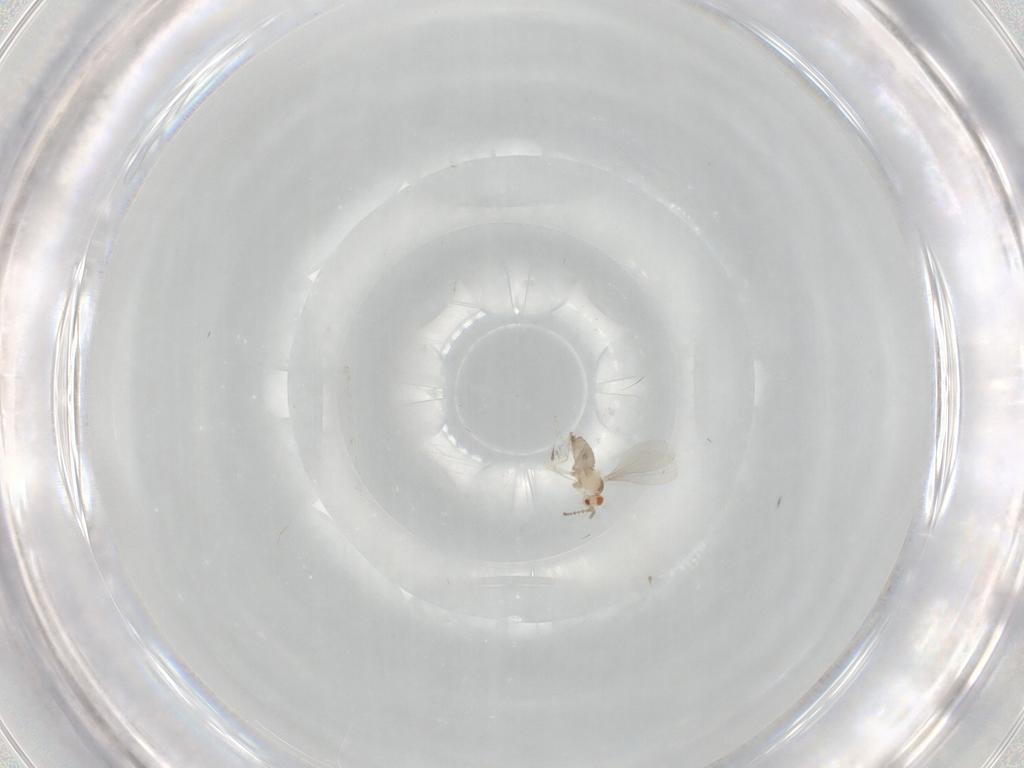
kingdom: Animalia
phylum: Arthropoda
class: Insecta
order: Diptera
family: Cecidomyiidae
